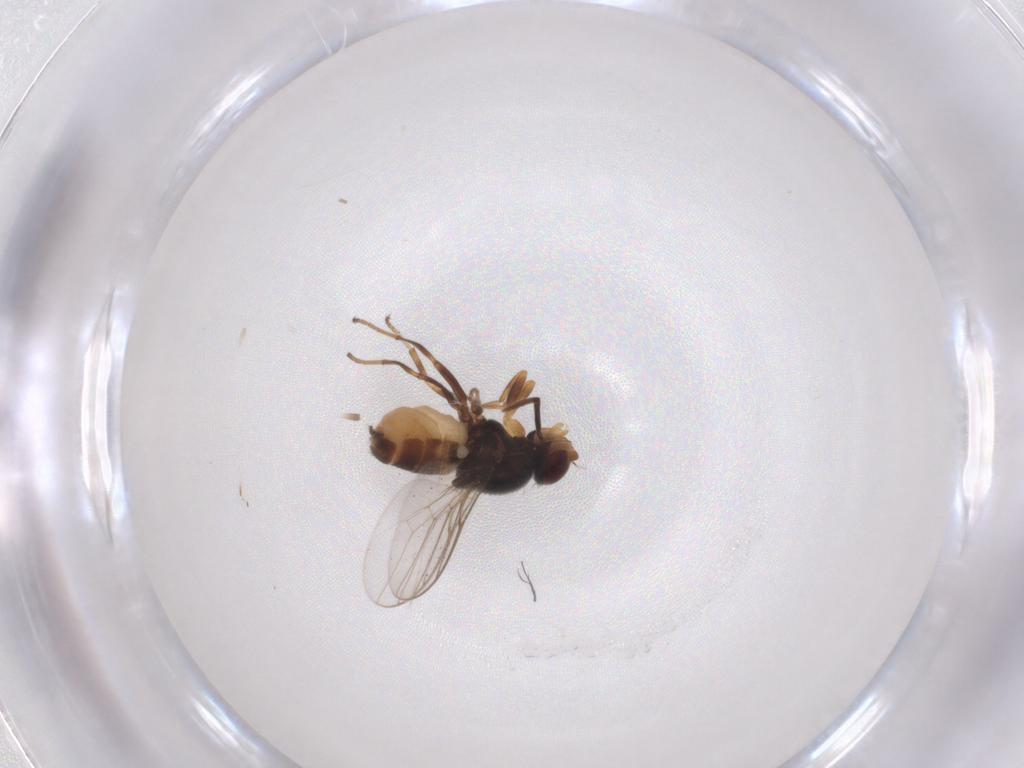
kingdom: Animalia
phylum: Arthropoda
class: Insecta
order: Diptera
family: Chloropidae
